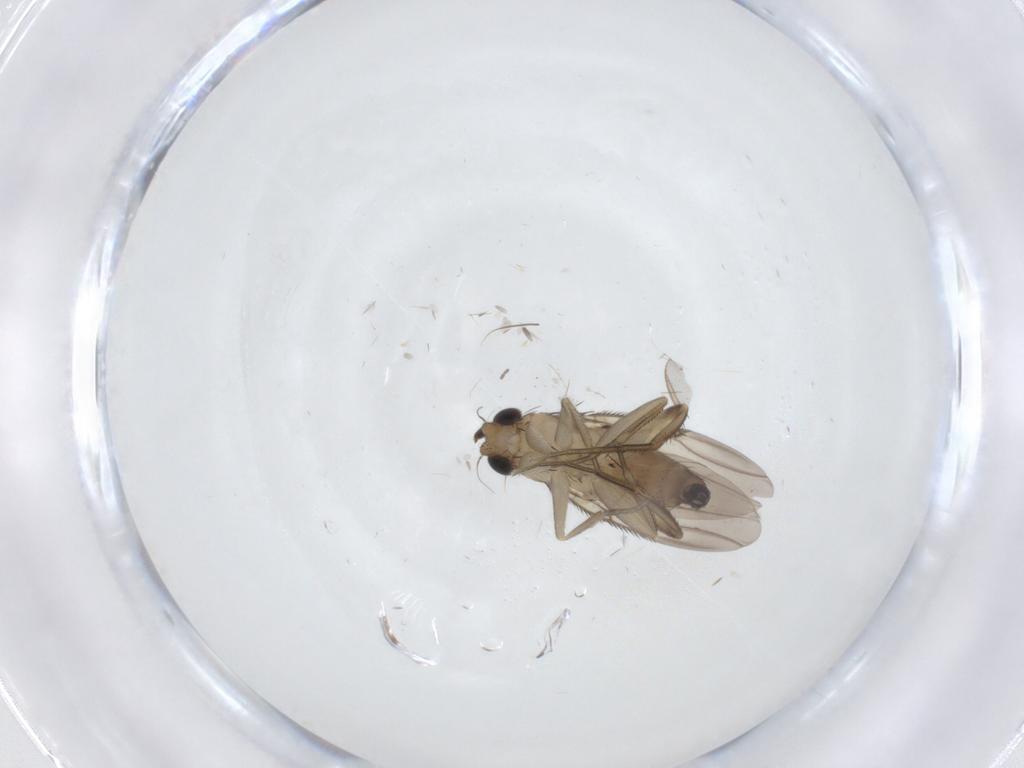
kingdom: Animalia
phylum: Arthropoda
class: Insecta
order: Diptera
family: Phoridae
